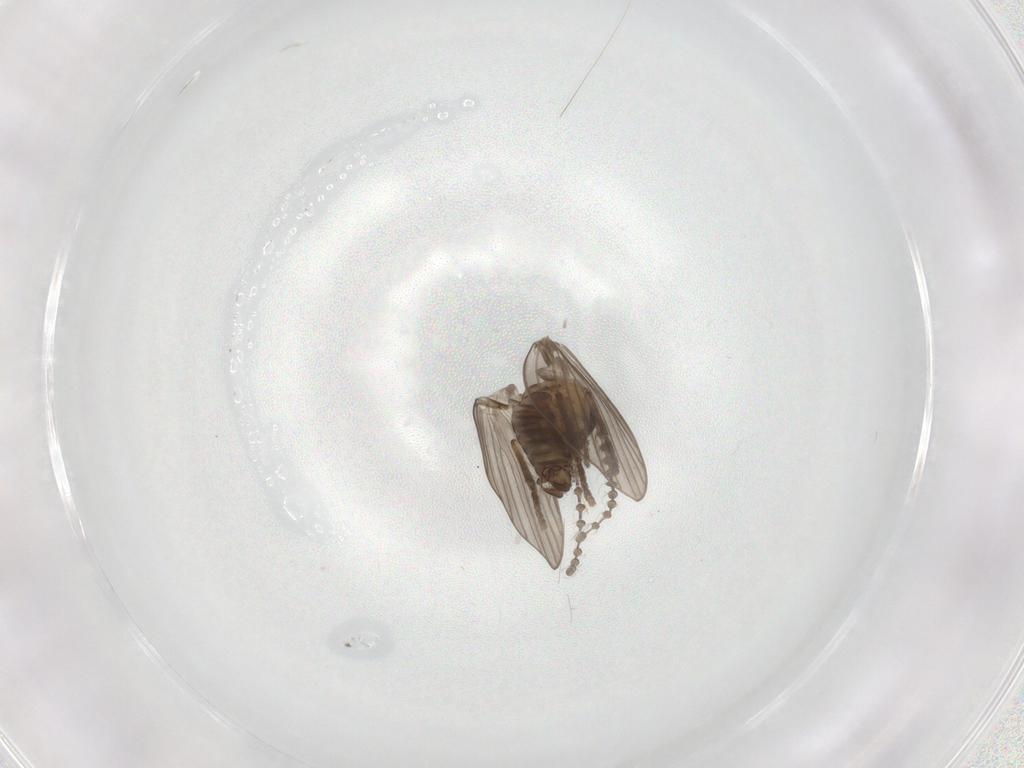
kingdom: Animalia
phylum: Arthropoda
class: Insecta
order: Diptera
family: Psychodidae
